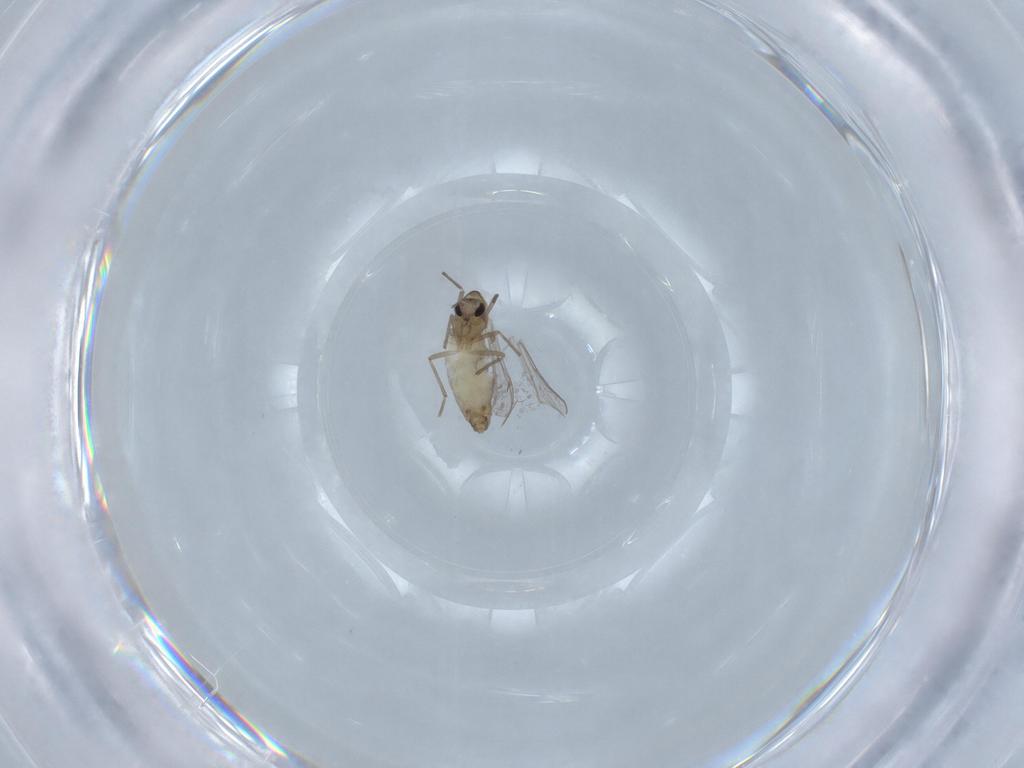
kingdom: Animalia
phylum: Arthropoda
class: Insecta
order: Diptera
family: Chironomidae
